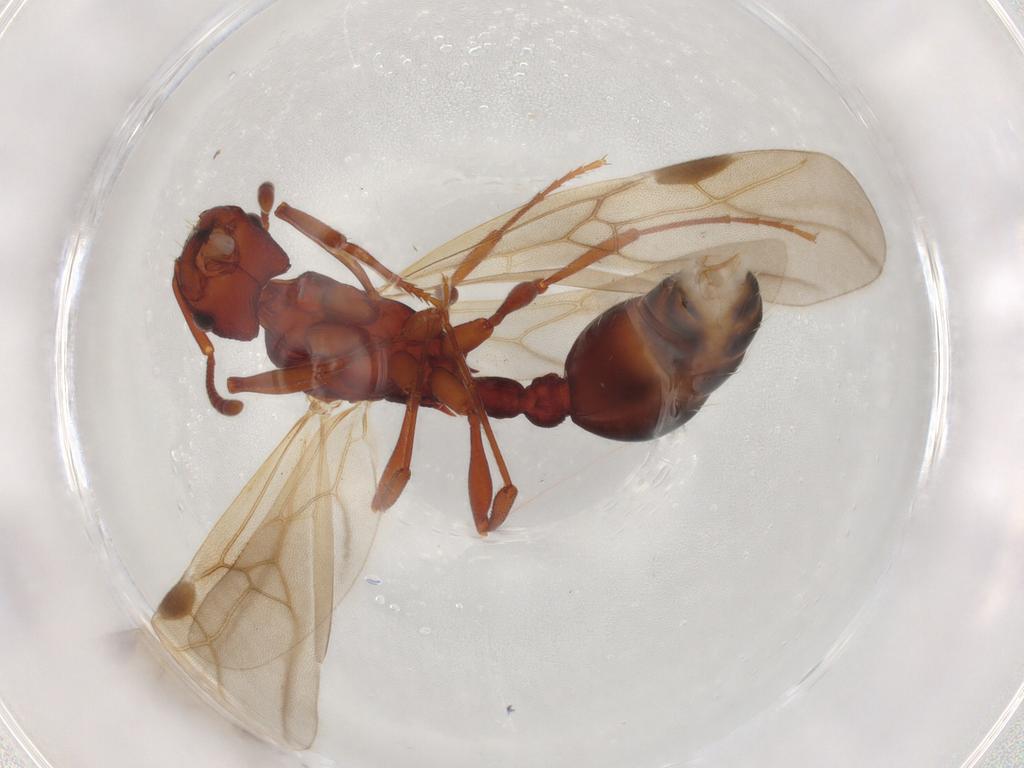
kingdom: Animalia
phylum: Arthropoda
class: Insecta
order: Hymenoptera
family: Formicidae
